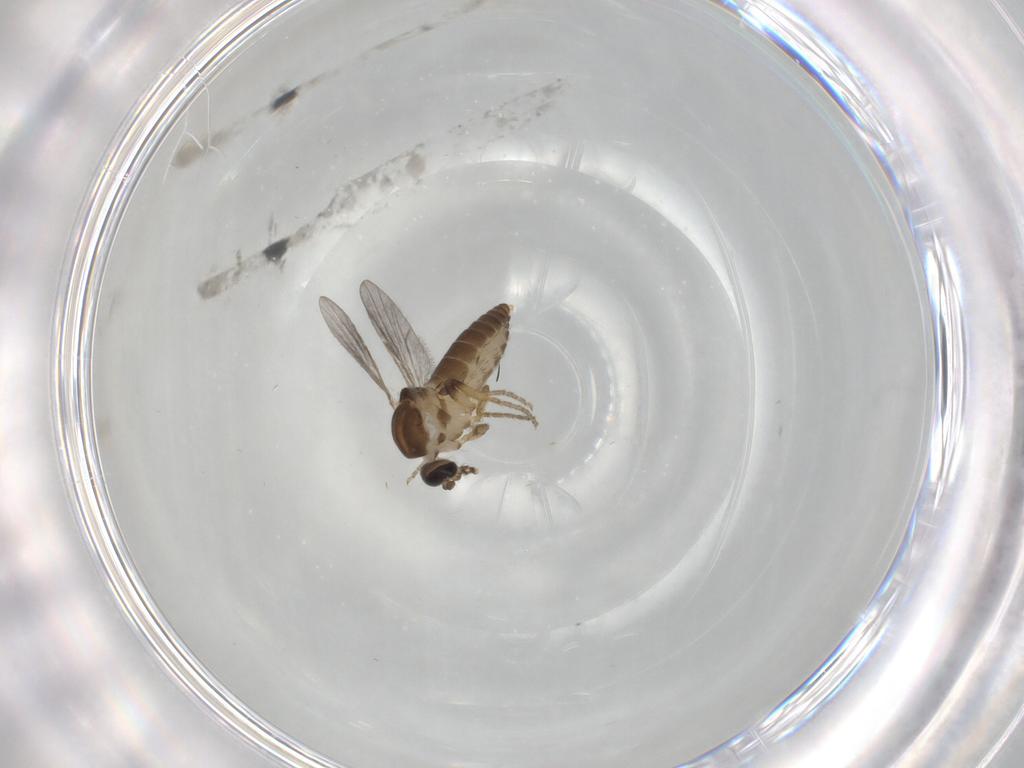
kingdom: Animalia
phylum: Arthropoda
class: Insecta
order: Diptera
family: Ceratopogonidae
